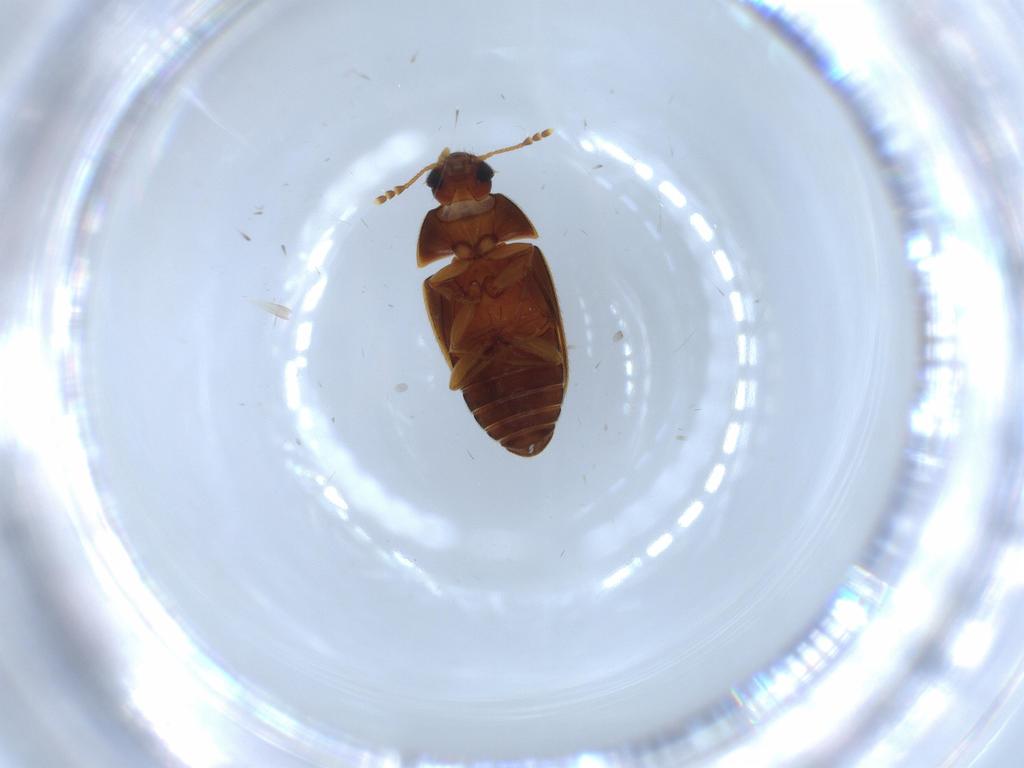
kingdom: Animalia
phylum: Arthropoda
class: Insecta
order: Coleoptera
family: Mycetophagidae
